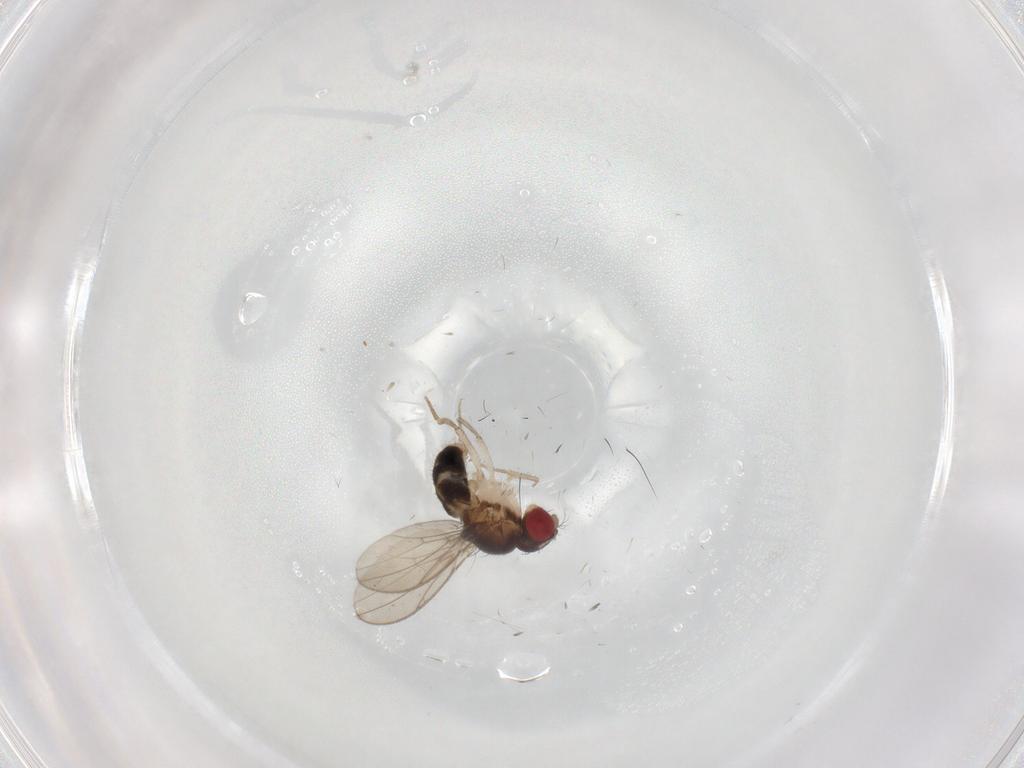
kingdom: Animalia
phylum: Arthropoda
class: Insecta
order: Diptera
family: Drosophilidae
